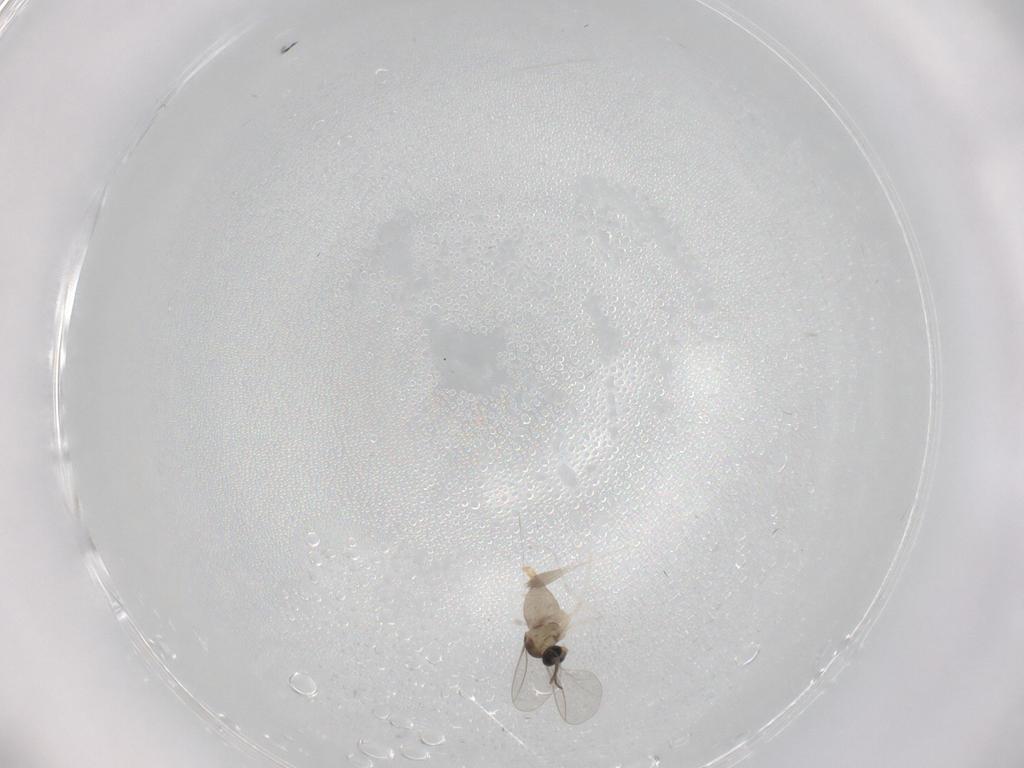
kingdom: Animalia
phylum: Arthropoda
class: Insecta
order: Diptera
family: Cecidomyiidae
